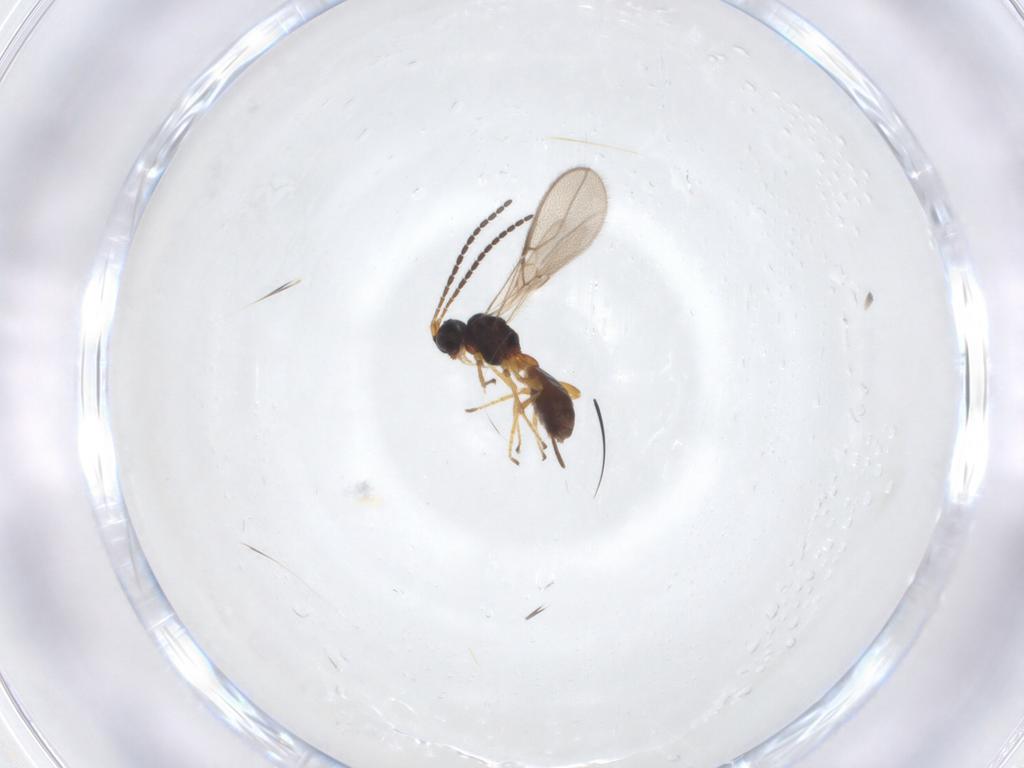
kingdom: Animalia
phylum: Arthropoda
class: Insecta
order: Hymenoptera
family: Braconidae
